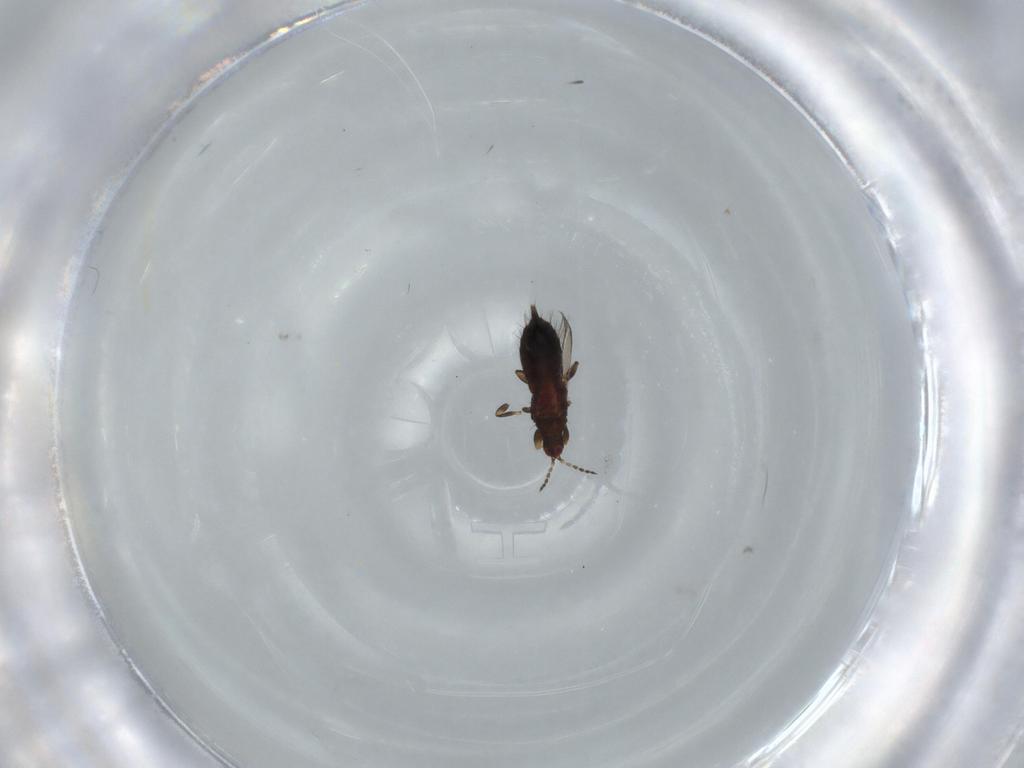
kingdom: Animalia
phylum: Arthropoda
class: Insecta
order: Thysanoptera
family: Phlaeothripidae
